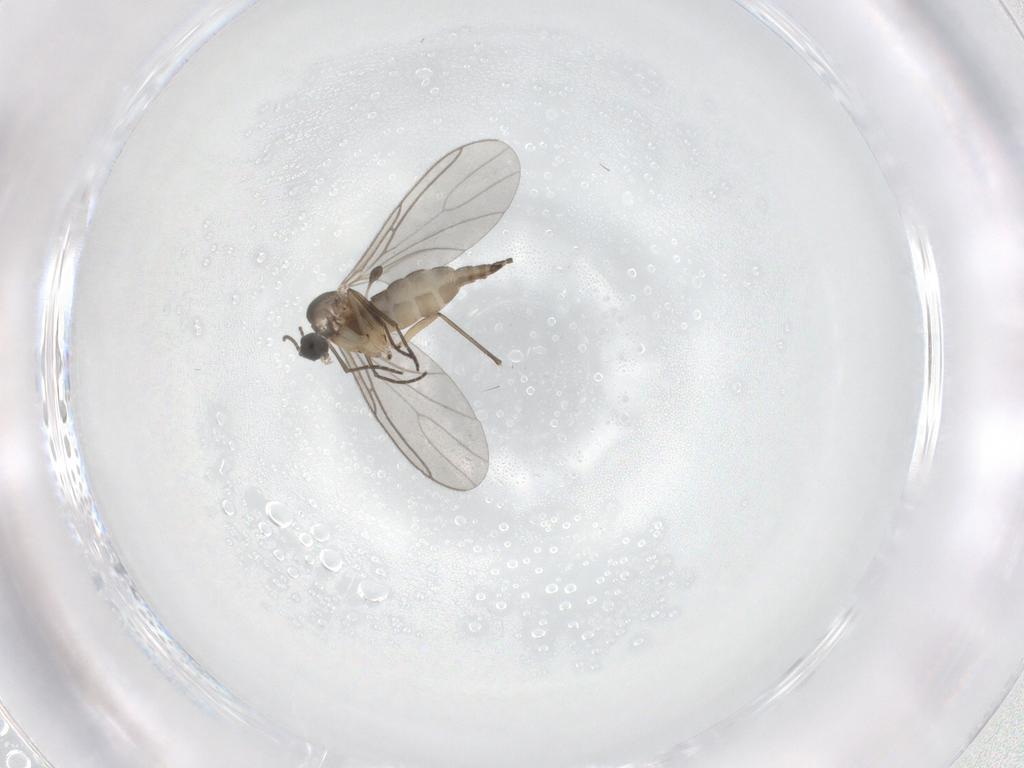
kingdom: Animalia
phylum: Arthropoda
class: Insecta
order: Diptera
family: Sciaridae
